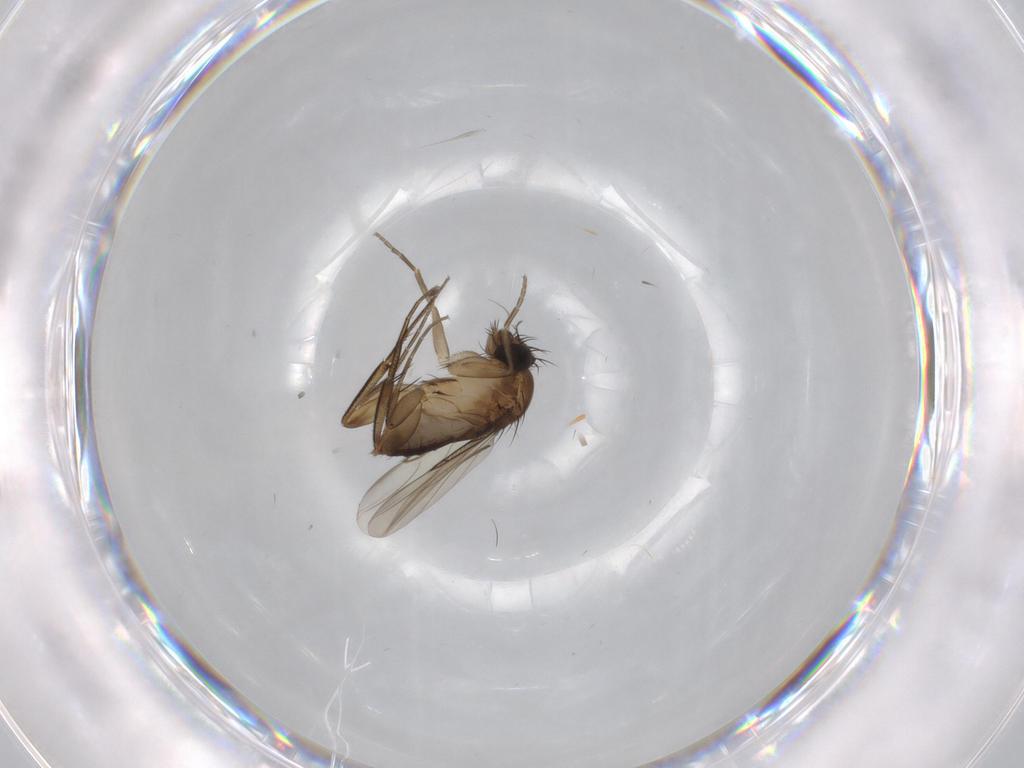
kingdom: Animalia
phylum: Arthropoda
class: Insecta
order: Diptera
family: Phoridae
